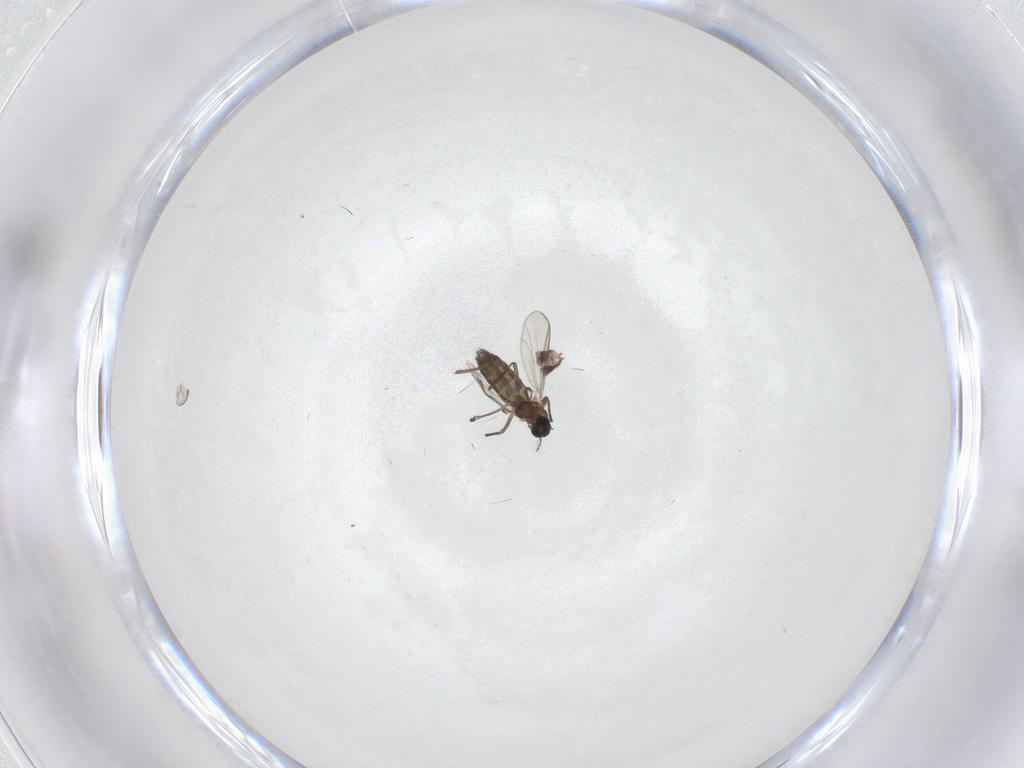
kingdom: Animalia
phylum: Arthropoda
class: Insecta
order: Diptera
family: Chironomidae
